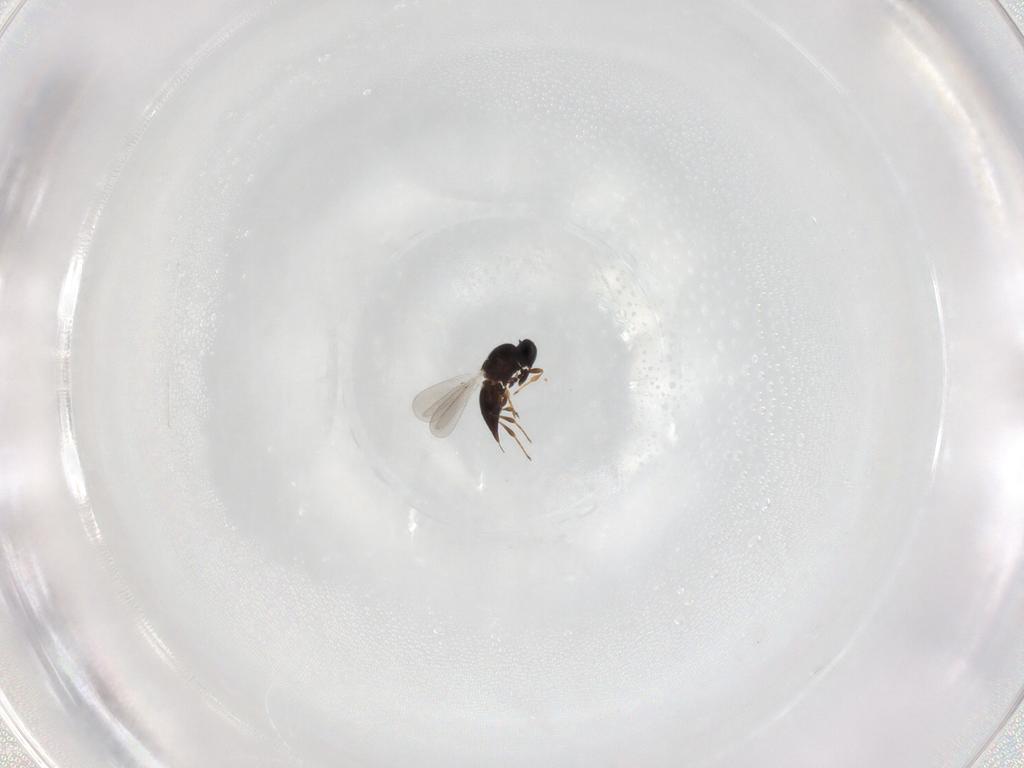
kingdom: Animalia
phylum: Arthropoda
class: Insecta
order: Hymenoptera
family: Platygastridae
